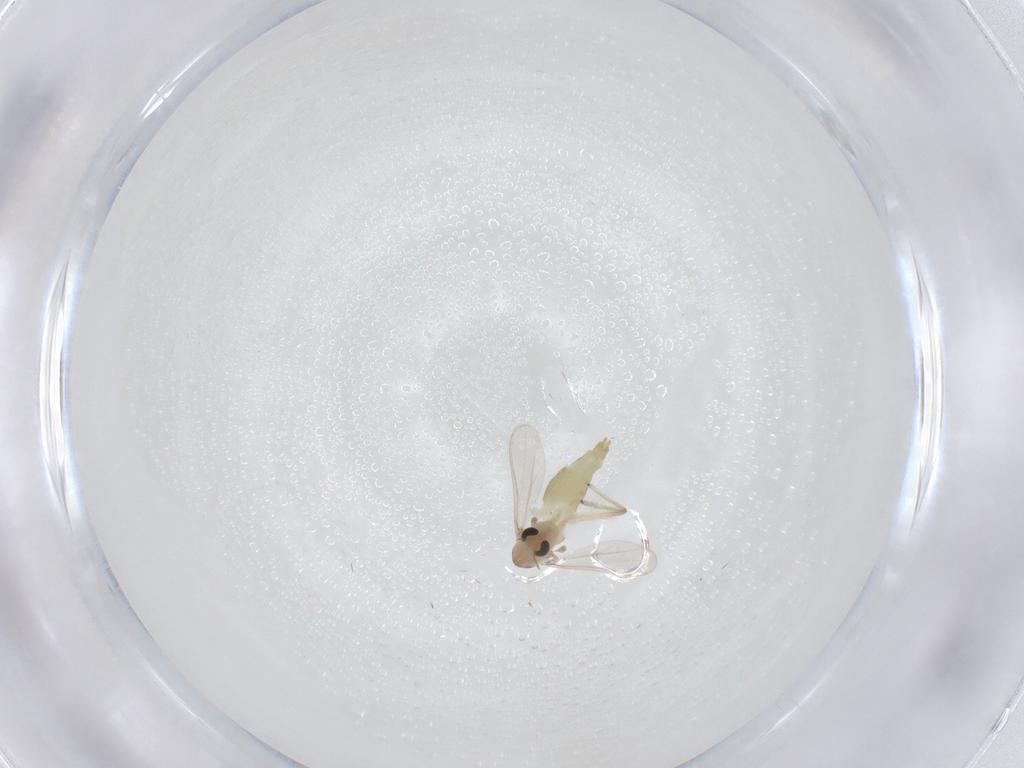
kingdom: Animalia
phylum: Arthropoda
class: Insecta
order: Diptera
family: Chironomidae
